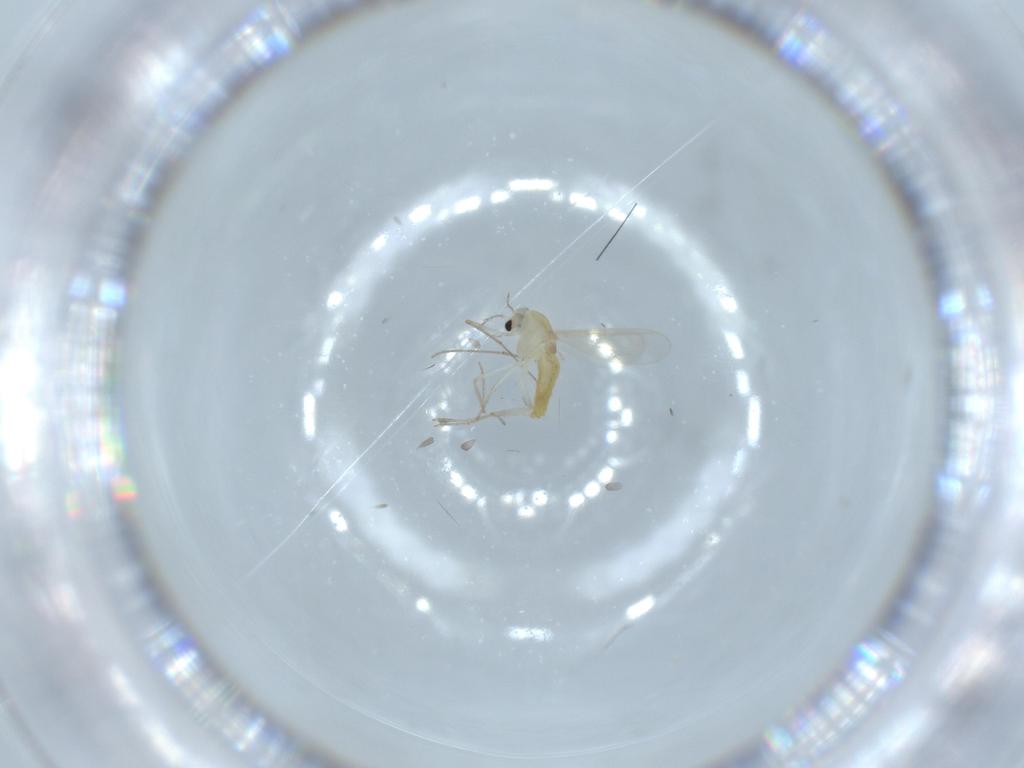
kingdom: Animalia
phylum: Arthropoda
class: Insecta
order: Diptera
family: Chironomidae
